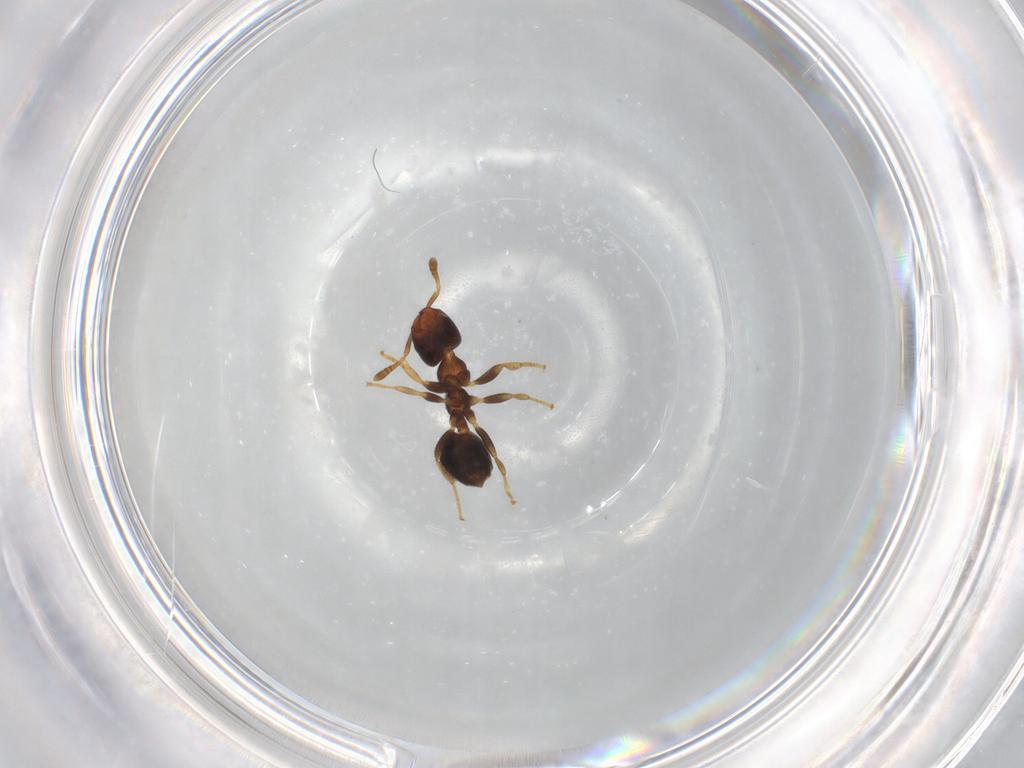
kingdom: Animalia
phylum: Arthropoda
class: Insecta
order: Hymenoptera
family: Formicidae
